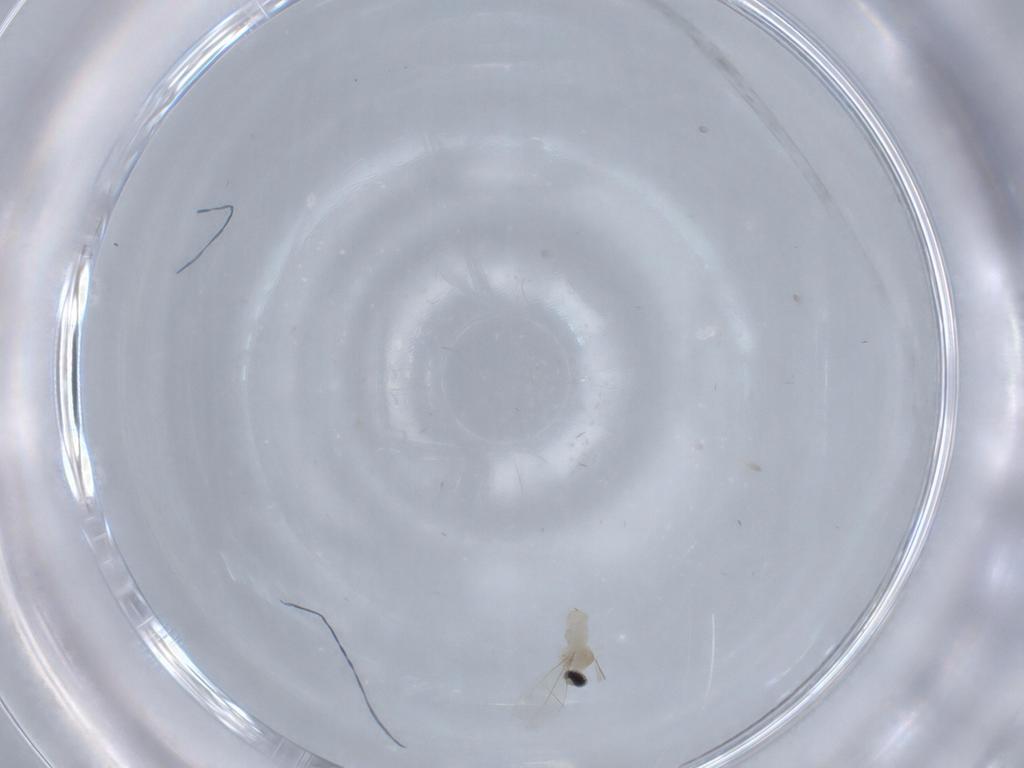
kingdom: Animalia
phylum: Arthropoda
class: Insecta
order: Diptera
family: Cecidomyiidae
